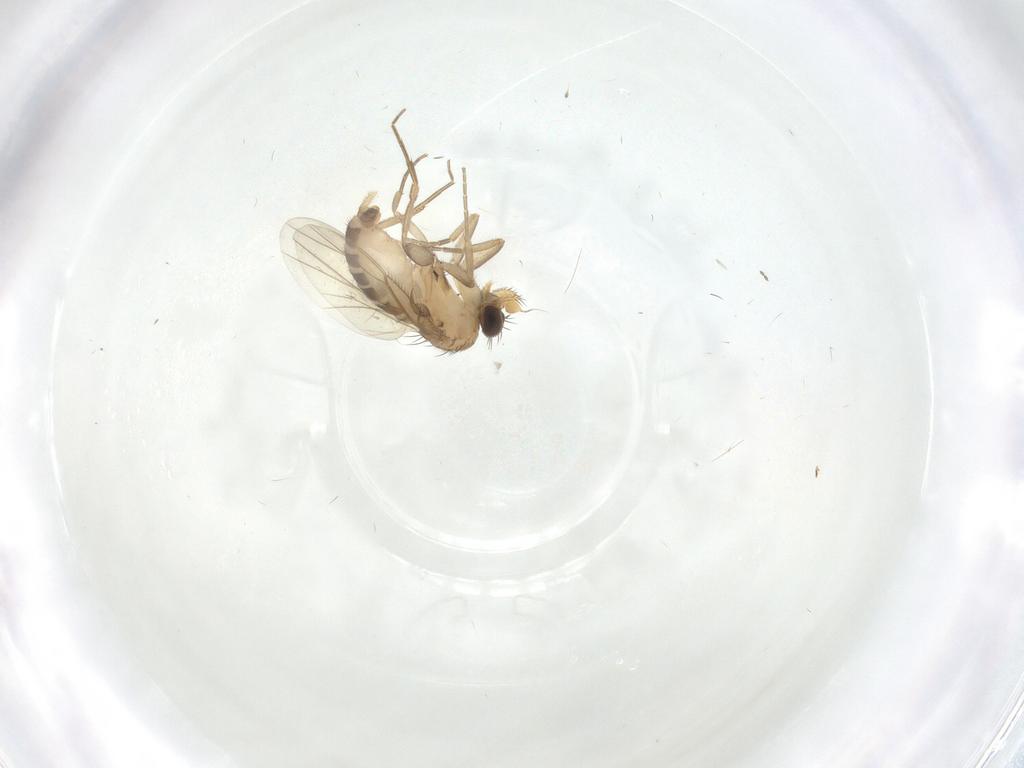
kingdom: Animalia
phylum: Arthropoda
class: Insecta
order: Diptera
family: Phoridae
